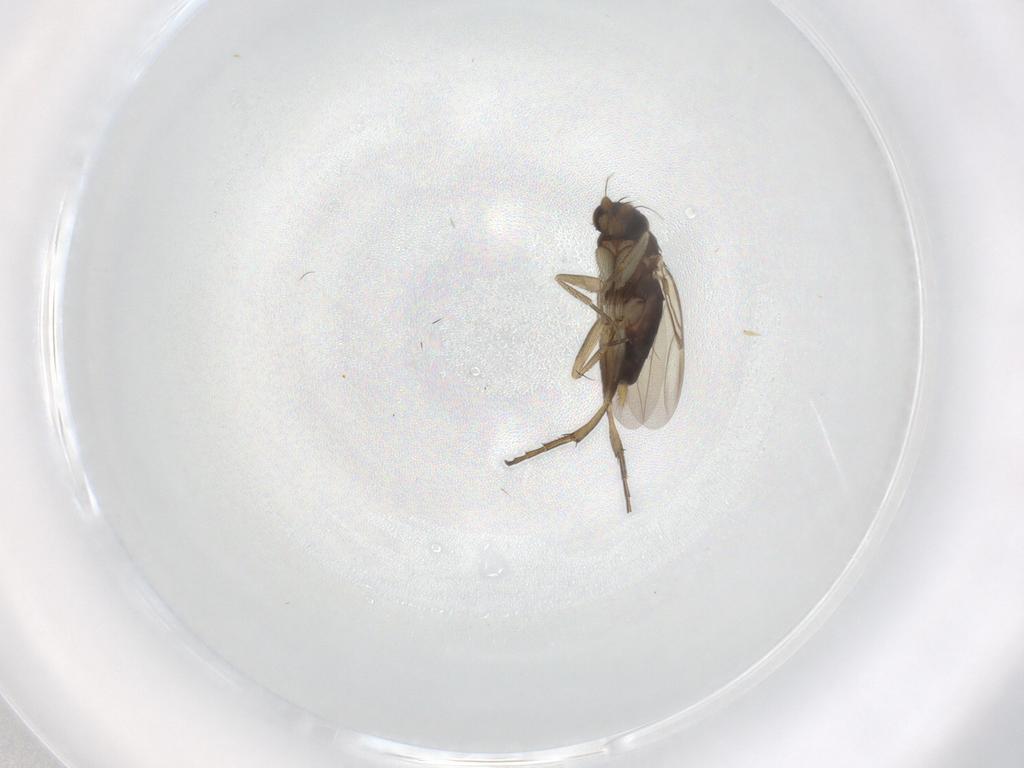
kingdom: Animalia
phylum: Arthropoda
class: Insecta
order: Diptera
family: Phoridae
